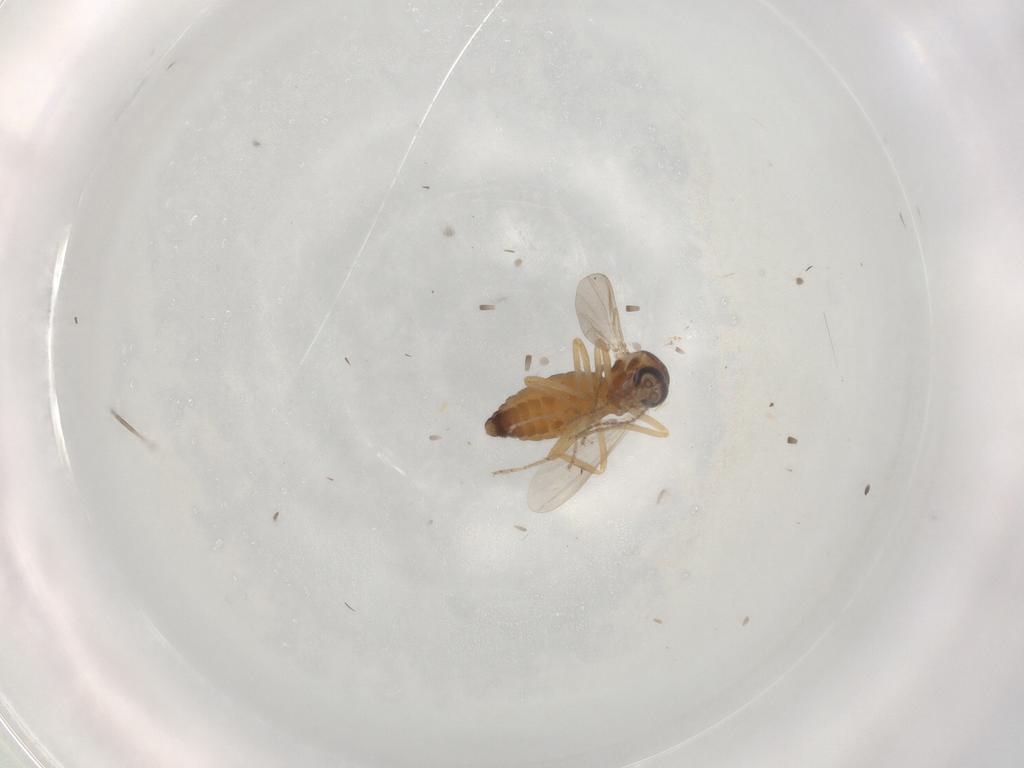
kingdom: Animalia
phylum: Arthropoda
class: Insecta
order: Diptera
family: Ceratopogonidae
